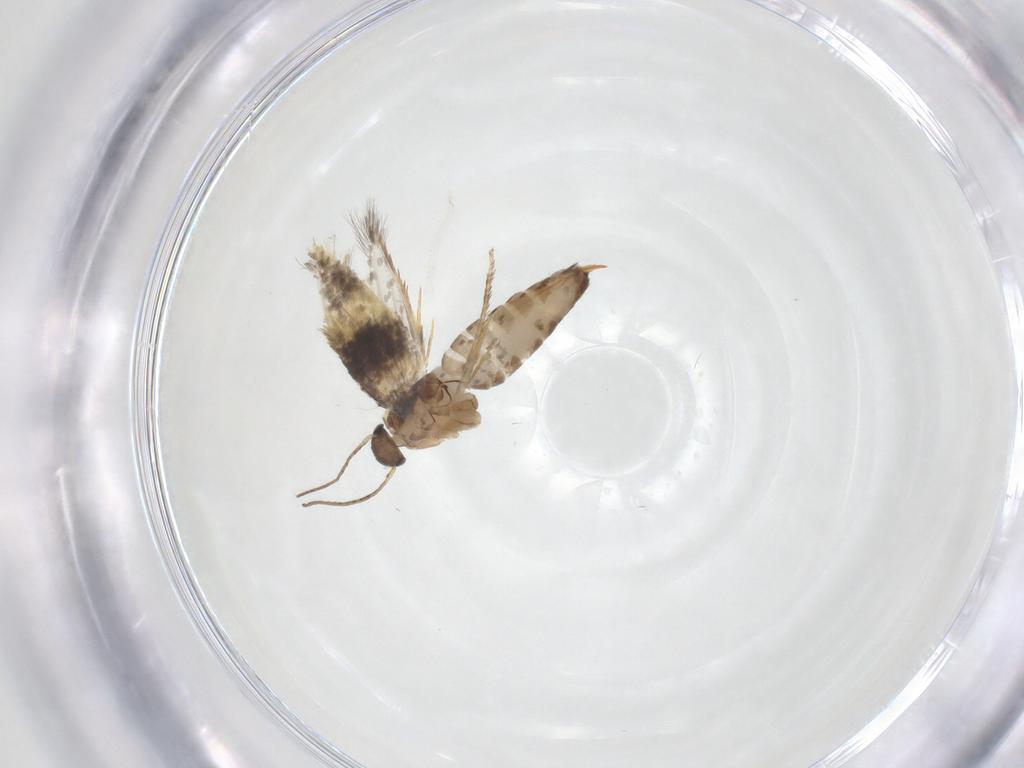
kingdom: Animalia
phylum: Arthropoda
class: Insecta
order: Lepidoptera
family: Heliozelidae
